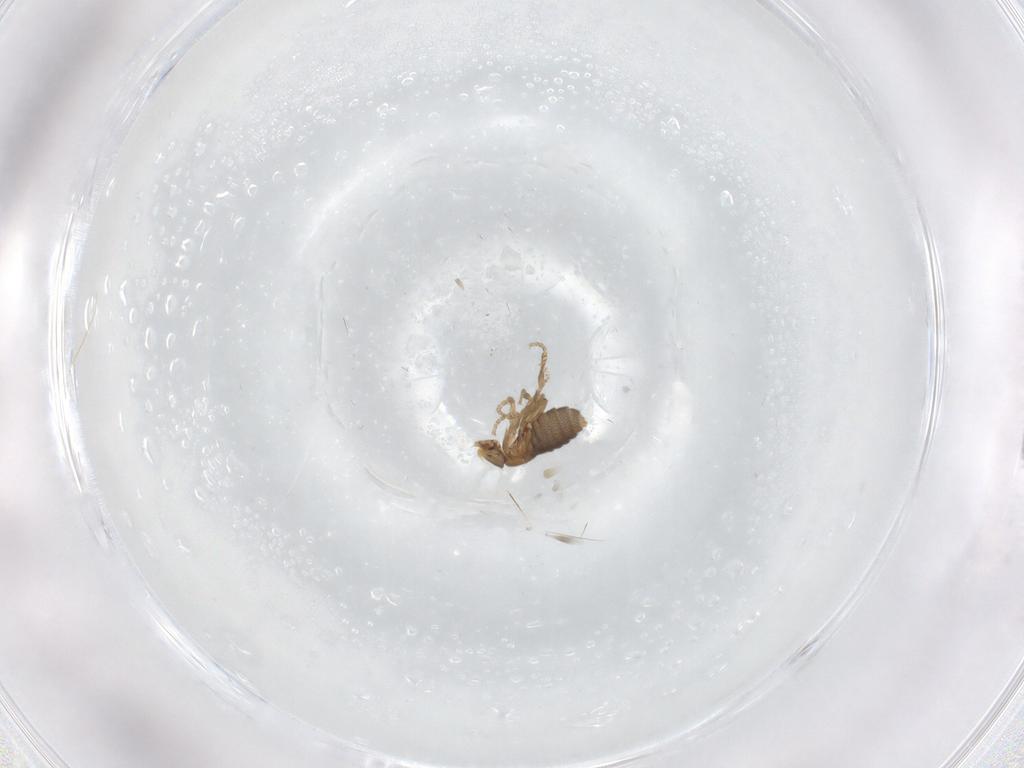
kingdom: Animalia
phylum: Arthropoda
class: Insecta
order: Diptera
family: Phoridae
